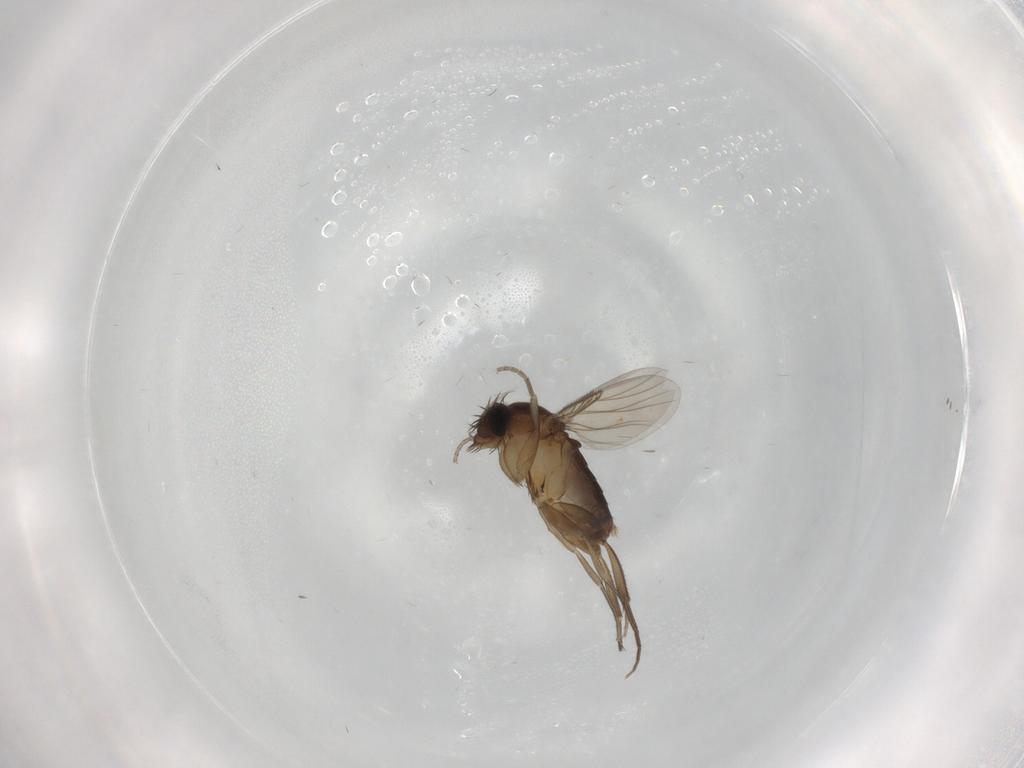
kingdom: Animalia
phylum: Arthropoda
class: Insecta
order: Diptera
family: Phoridae
